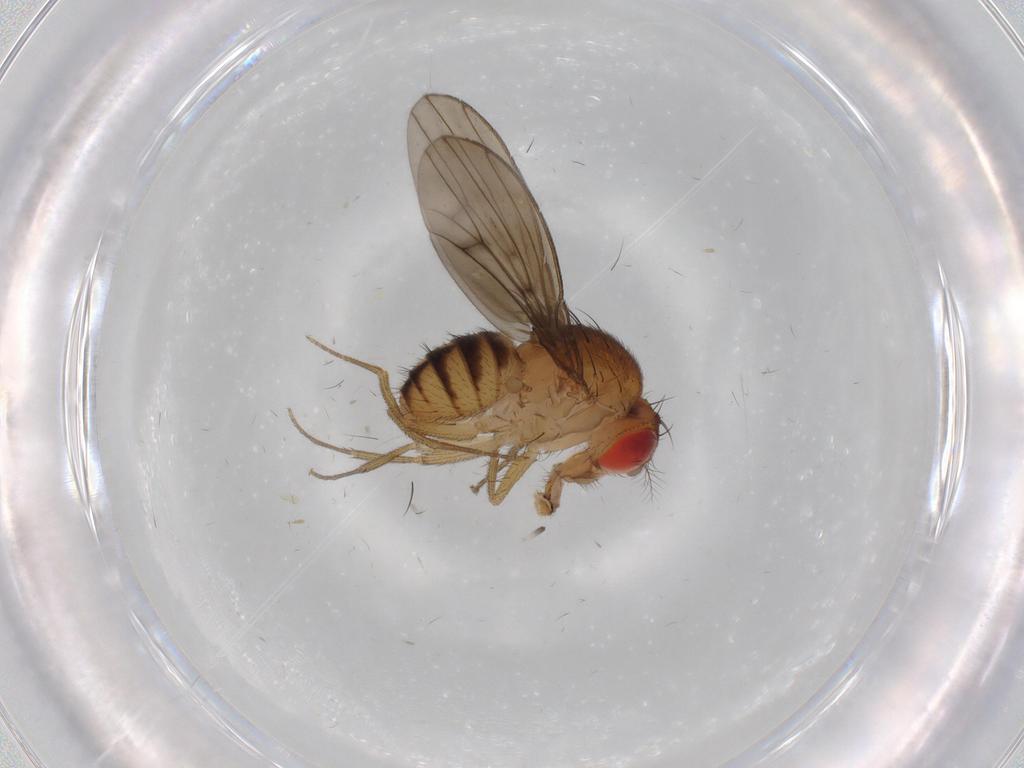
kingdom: Animalia
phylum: Arthropoda
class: Insecta
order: Diptera
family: Drosophilidae
